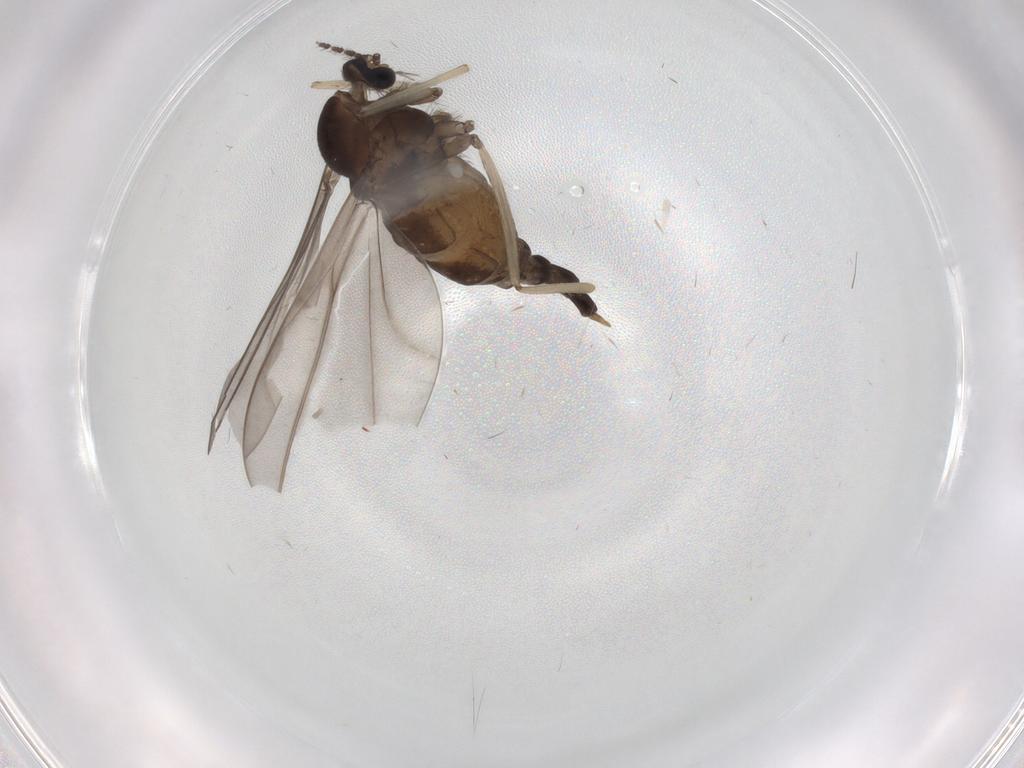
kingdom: Animalia
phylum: Arthropoda
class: Insecta
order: Diptera
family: Cecidomyiidae
